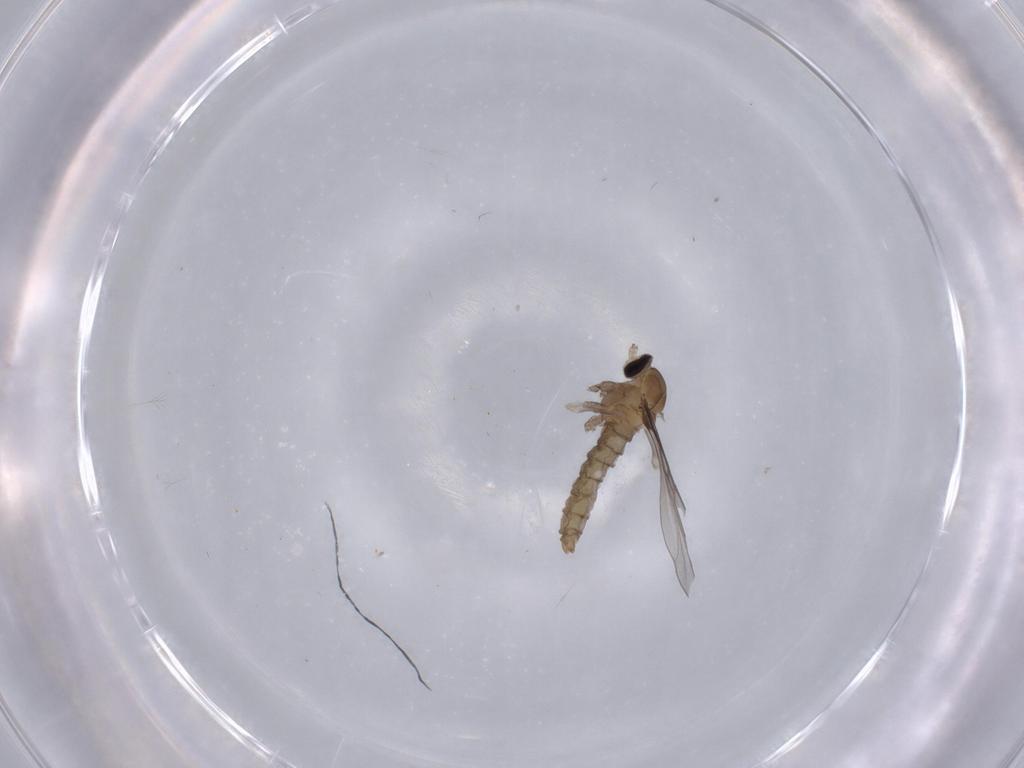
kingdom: Animalia
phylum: Arthropoda
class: Insecta
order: Diptera
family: Cecidomyiidae
